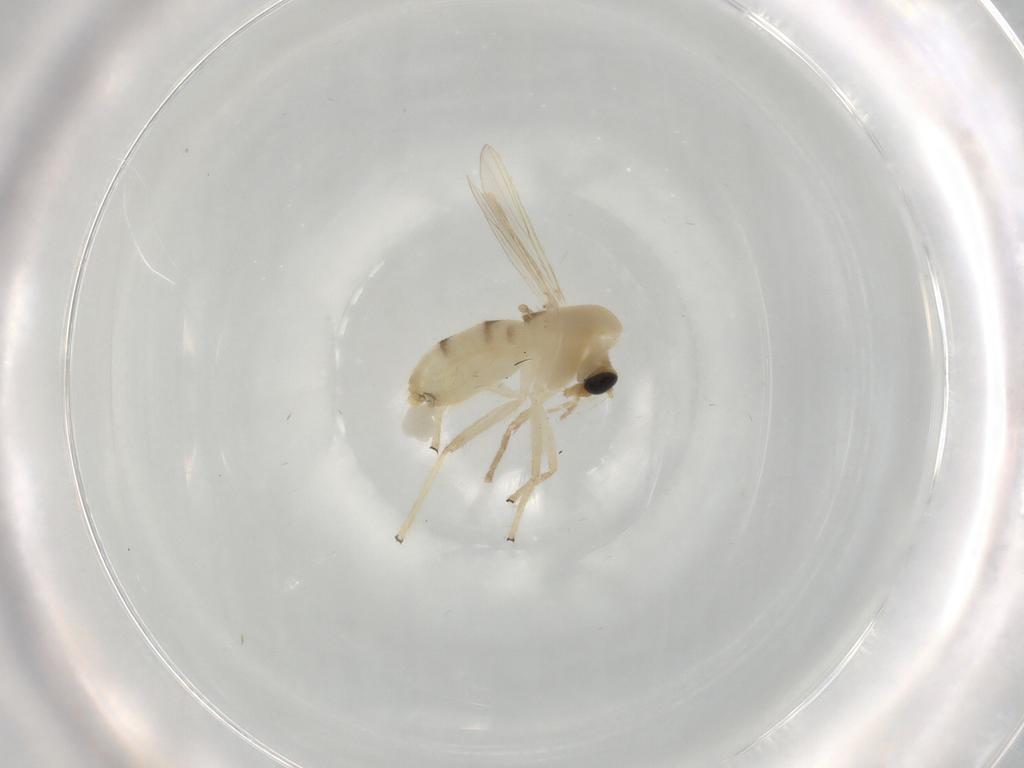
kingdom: Animalia
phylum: Arthropoda
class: Insecta
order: Diptera
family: Chironomidae
